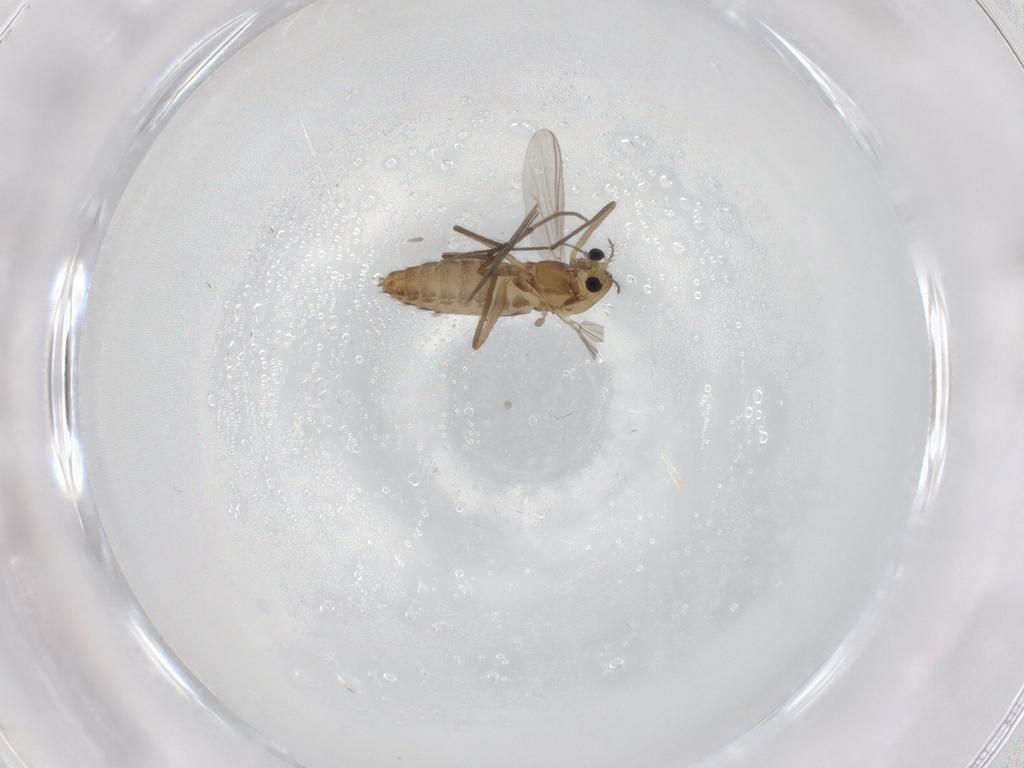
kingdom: Animalia
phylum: Arthropoda
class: Insecta
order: Diptera
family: Chironomidae
